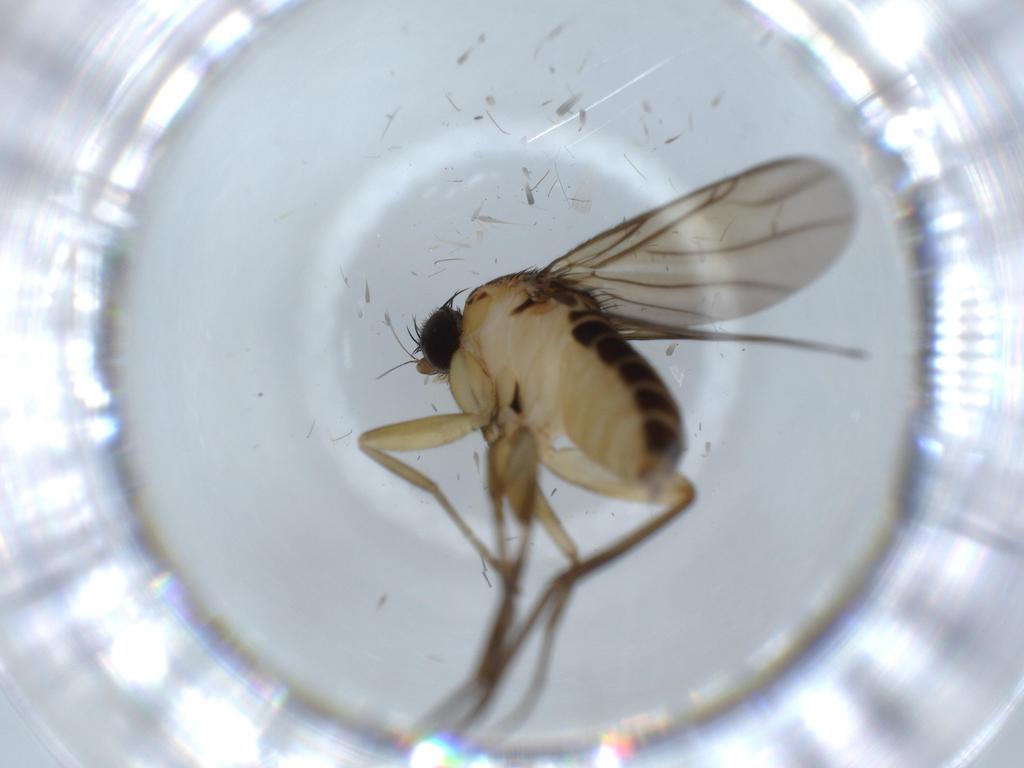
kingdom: Animalia
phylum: Arthropoda
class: Insecta
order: Diptera
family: Phoridae
